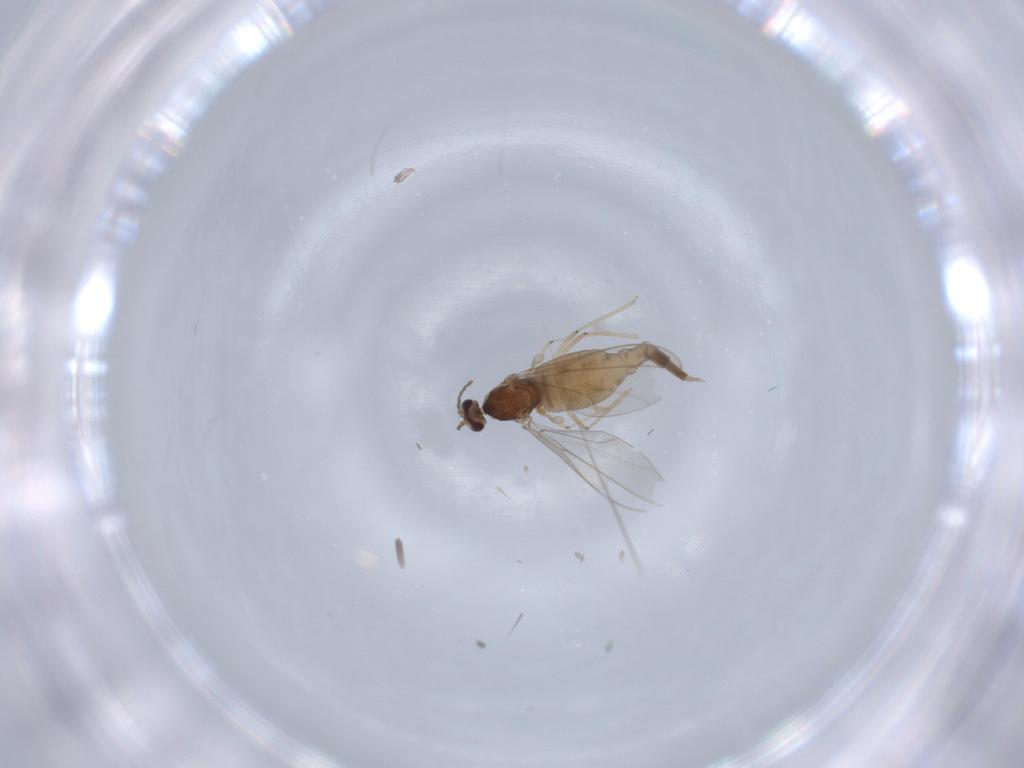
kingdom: Animalia
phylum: Arthropoda
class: Insecta
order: Diptera
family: Cecidomyiidae
